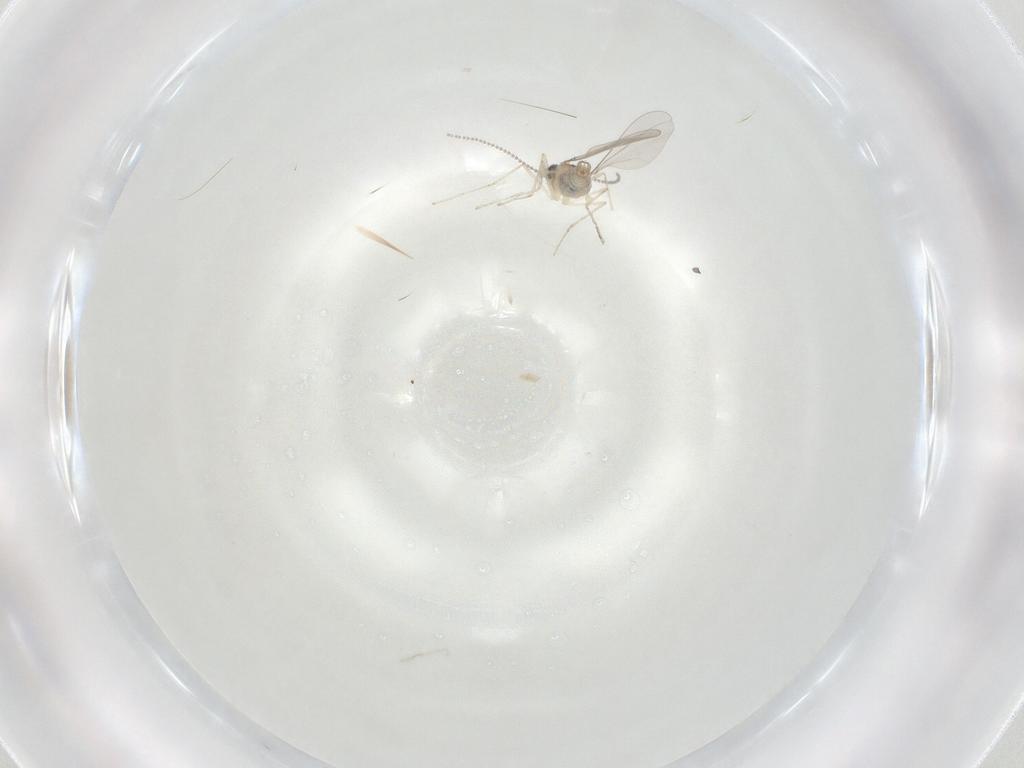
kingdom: Animalia
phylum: Arthropoda
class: Insecta
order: Diptera
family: Cecidomyiidae
